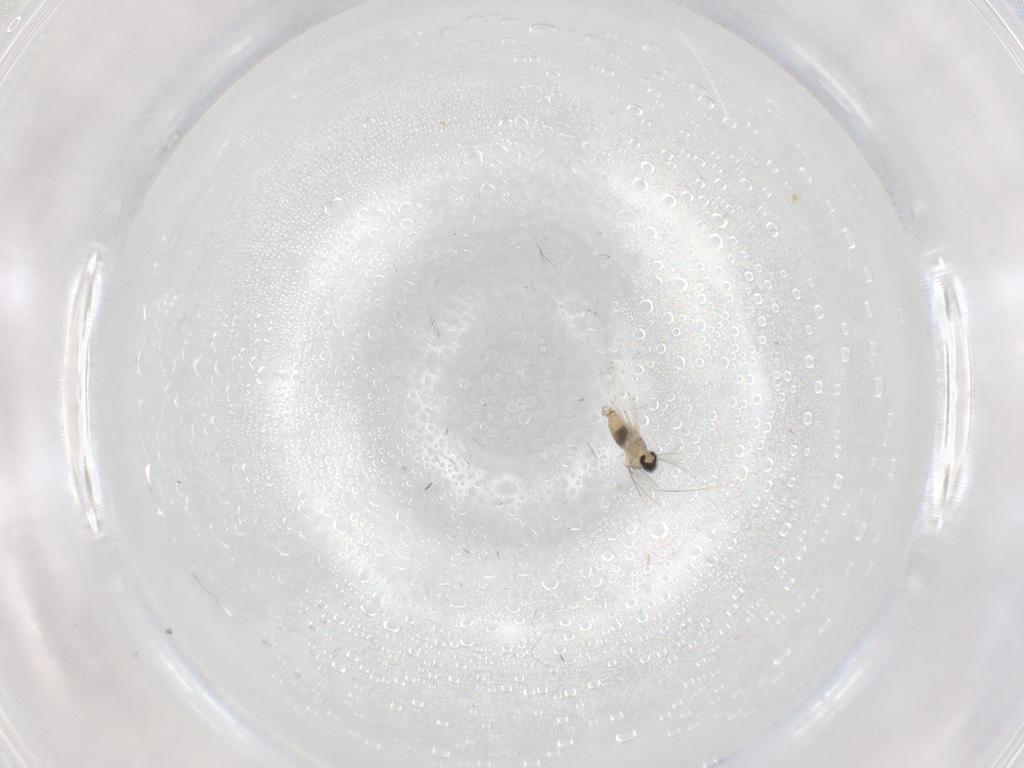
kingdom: Animalia
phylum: Arthropoda
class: Insecta
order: Diptera
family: Cecidomyiidae
